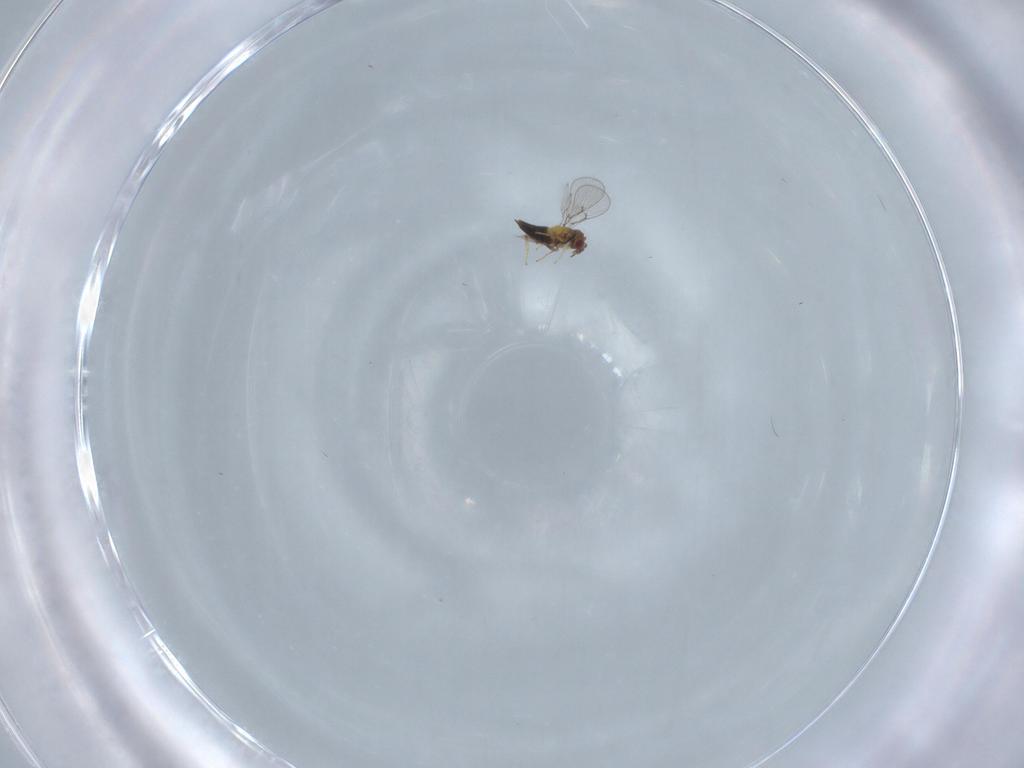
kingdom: Animalia
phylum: Arthropoda
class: Insecta
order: Hymenoptera
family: Trichogrammatidae
